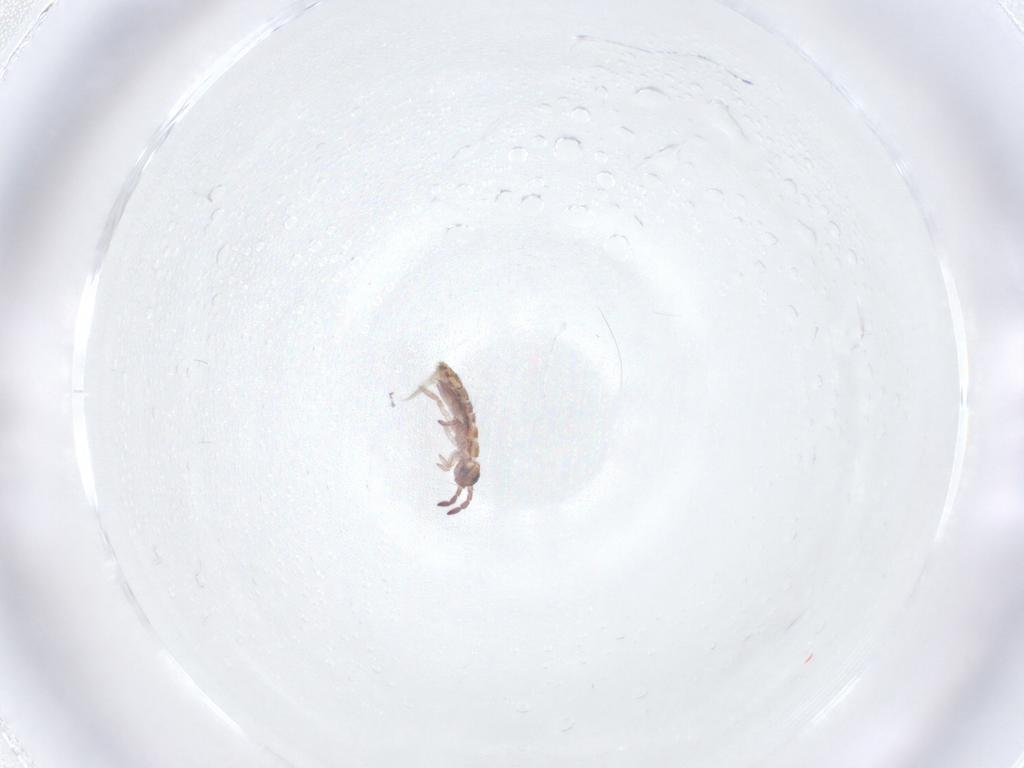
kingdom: Animalia
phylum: Arthropoda
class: Collembola
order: Entomobryomorpha
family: Isotomidae
